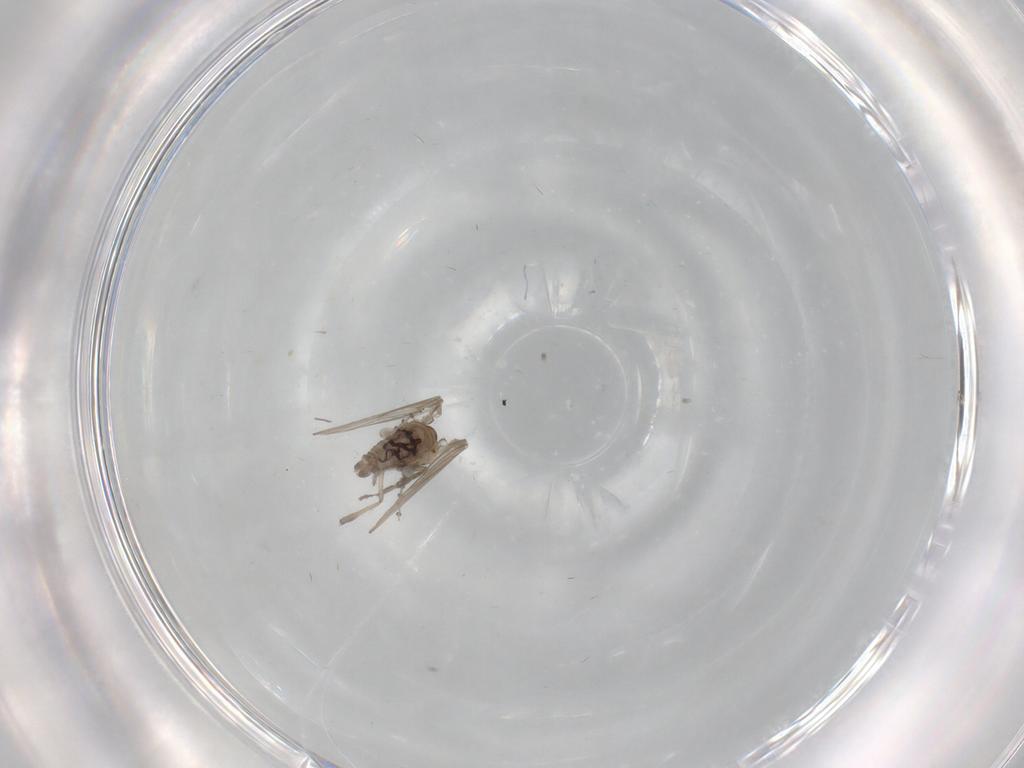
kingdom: Animalia
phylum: Arthropoda
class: Insecta
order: Diptera
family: Psychodidae
